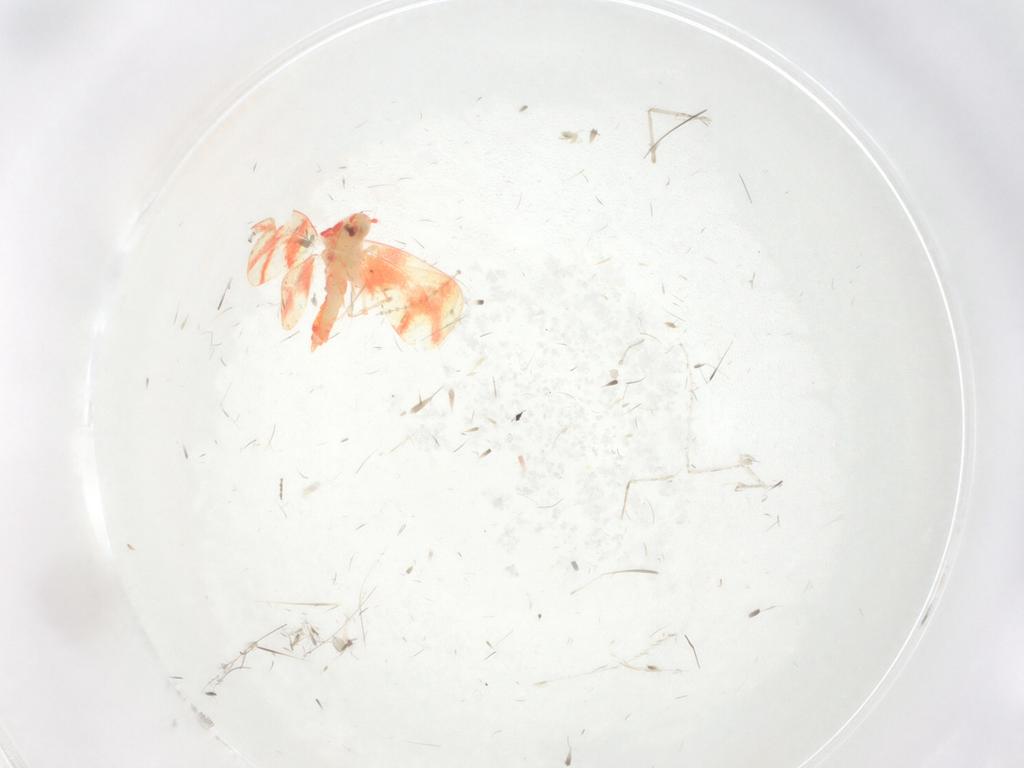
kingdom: Animalia
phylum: Arthropoda
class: Insecta
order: Hemiptera
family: Aleyrodidae
